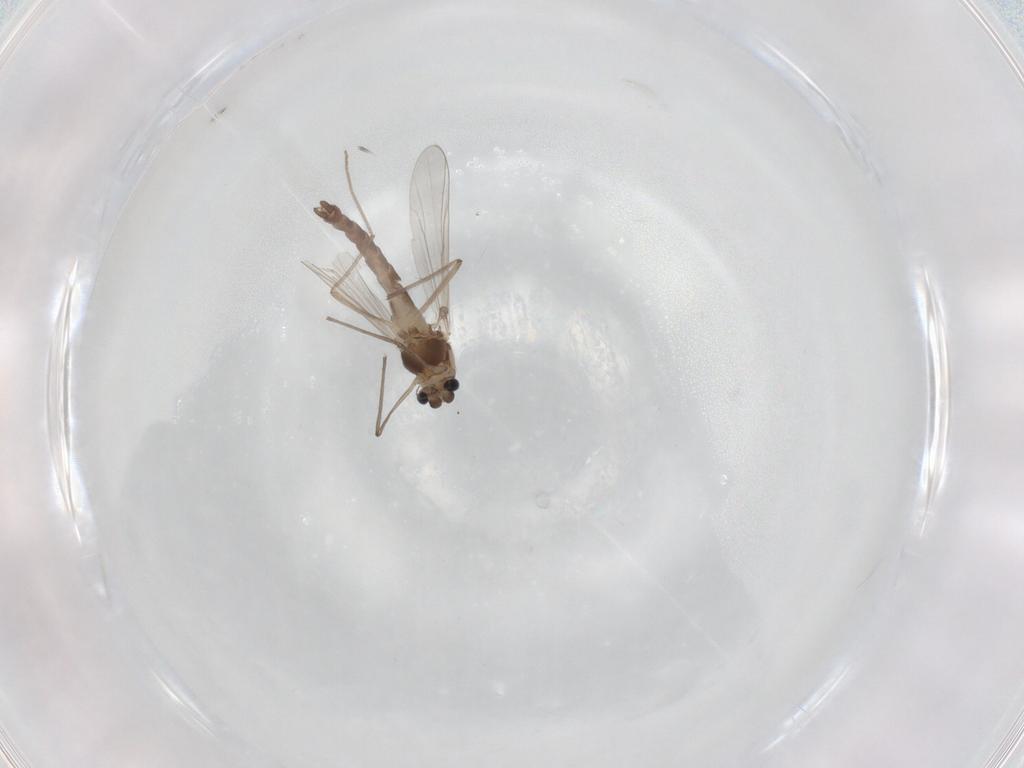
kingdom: Animalia
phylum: Arthropoda
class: Insecta
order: Diptera
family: Chironomidae
